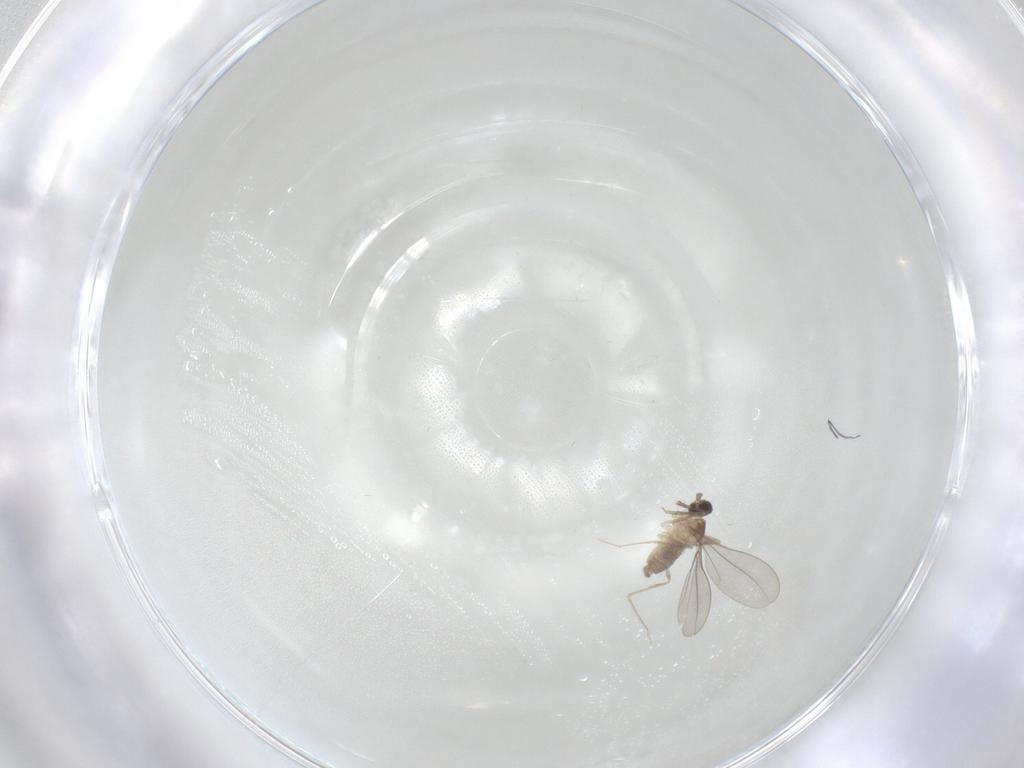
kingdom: Animalia
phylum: Arthropoda
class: Insecta
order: Diptera
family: Cecidomyiidae
